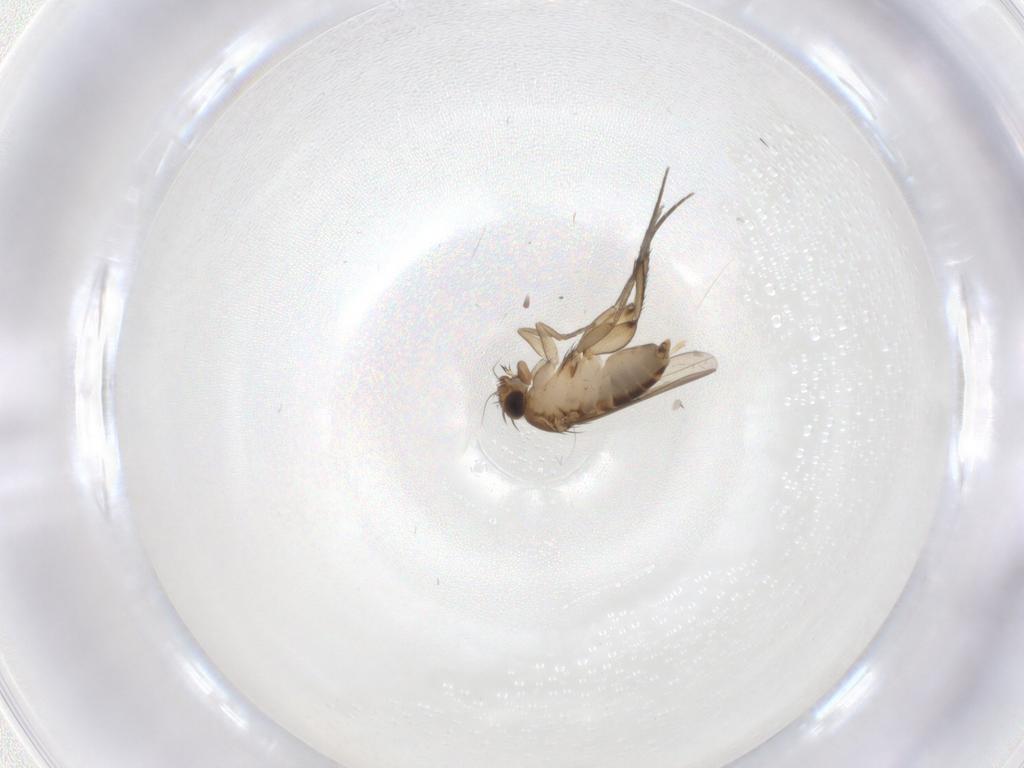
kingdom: Animalia
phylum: Arthropoda
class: Insecta
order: Diptera
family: Phoridae
